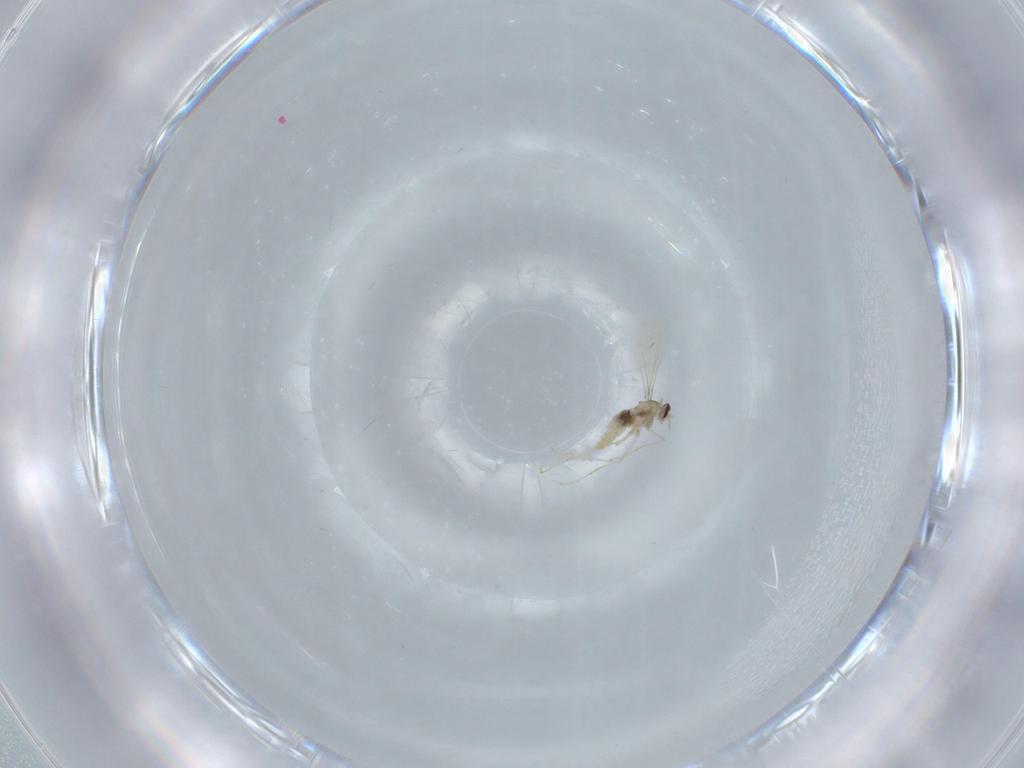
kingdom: Animalia
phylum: Arthropoda
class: Insecta
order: Diptera
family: Cecidomyiidae
